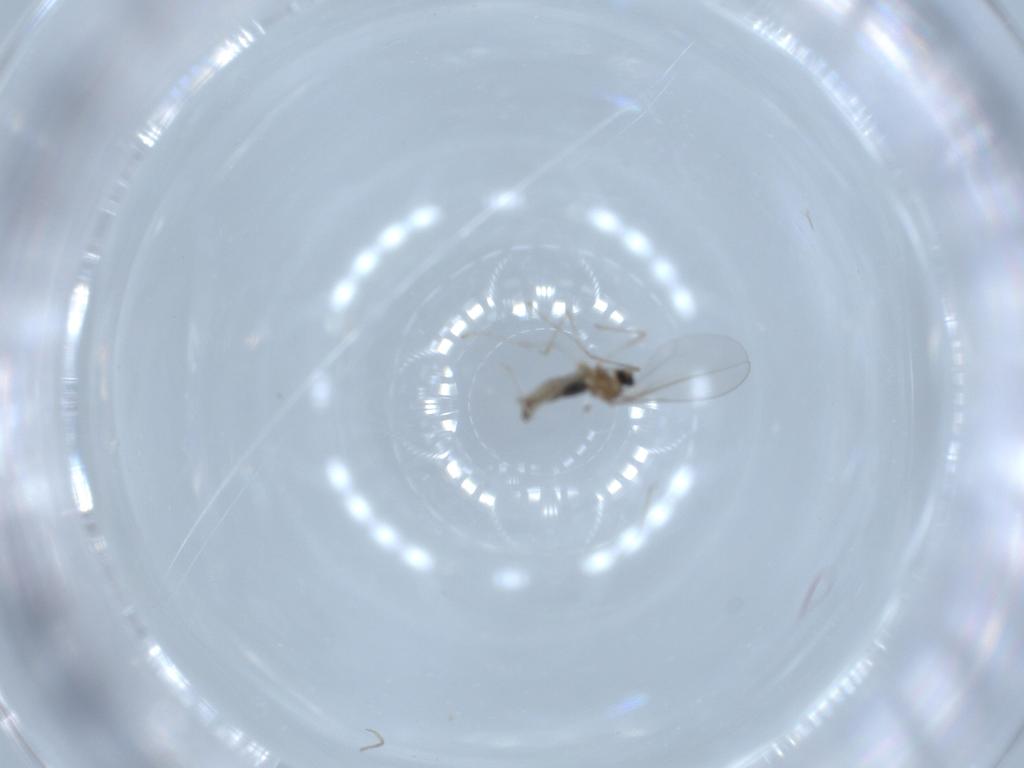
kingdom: Animalia
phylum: Arthropoda
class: Insecta
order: Diptera
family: Cecidomyiidae
